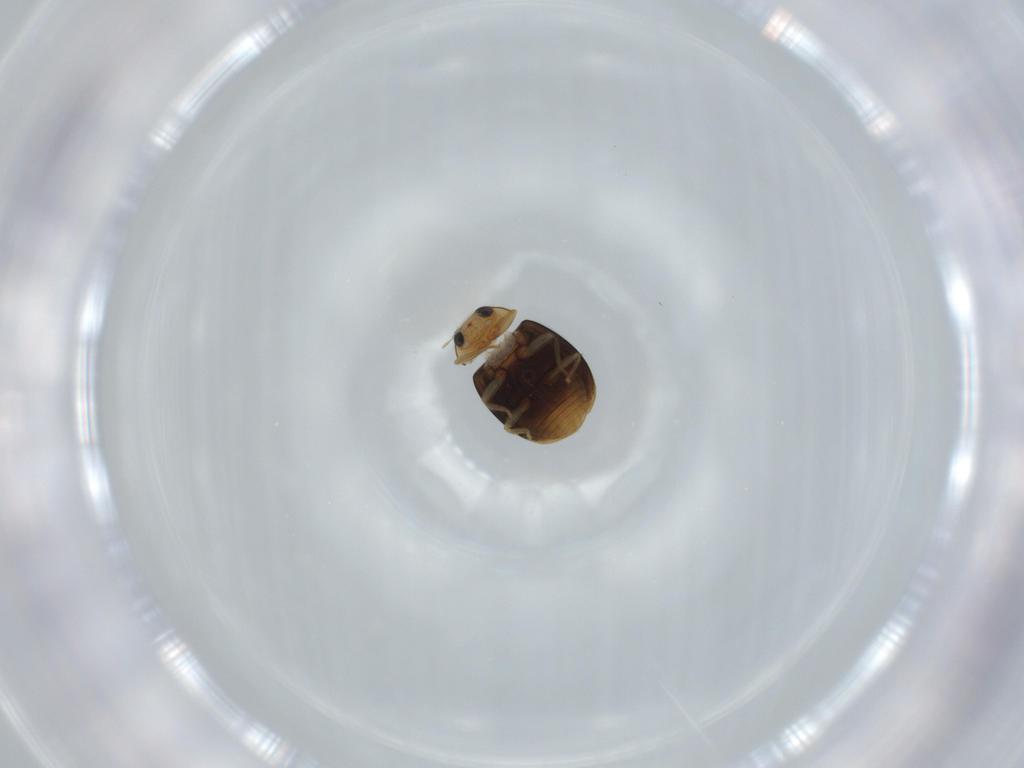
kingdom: Animalia
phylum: Arthropoda
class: Insecta
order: Coleoptera
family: Coccinellidae
